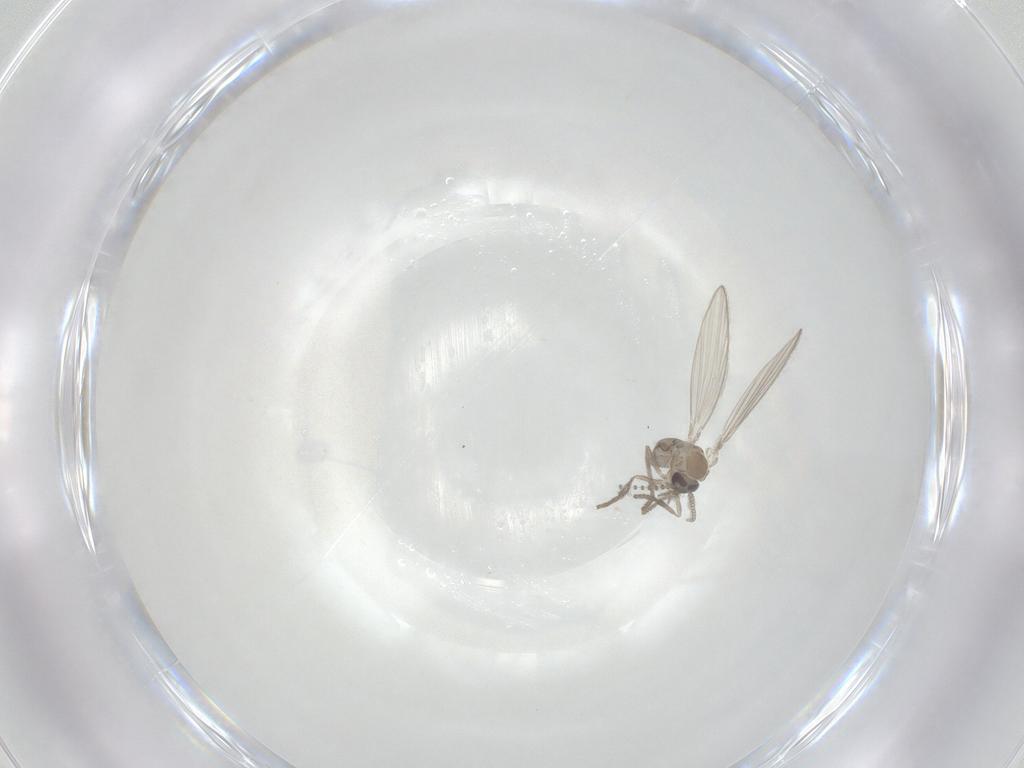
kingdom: Animalia
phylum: Arthropoda
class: Insecta
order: Diptera
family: Psychodidae
